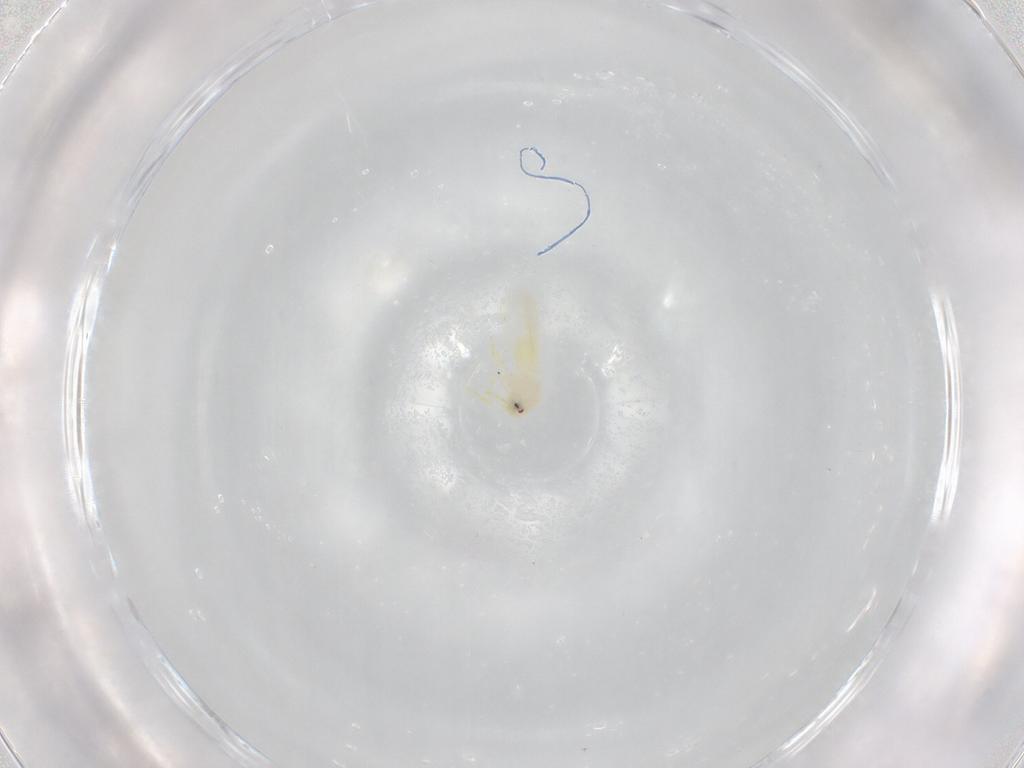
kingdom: Animalia
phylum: Arthropoda
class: Insecta
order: Hemiptera
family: Aleyrodidae
